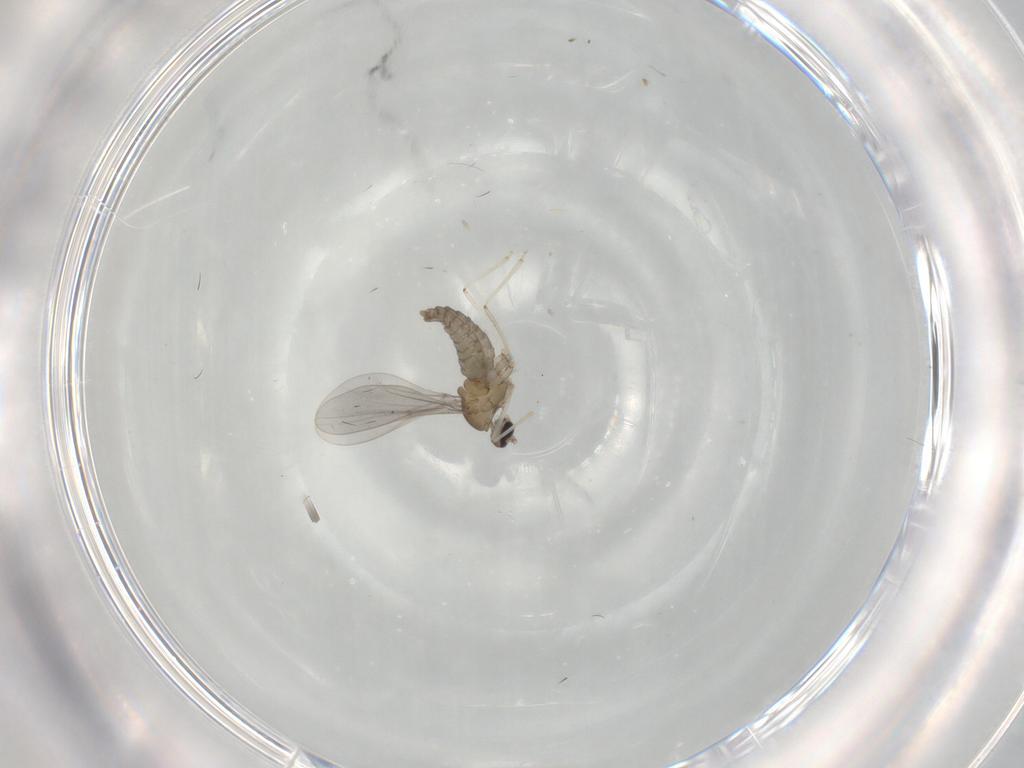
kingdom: Animalia
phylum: Arthropoda
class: Insecta
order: Diptera
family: Cecidomyiidae
